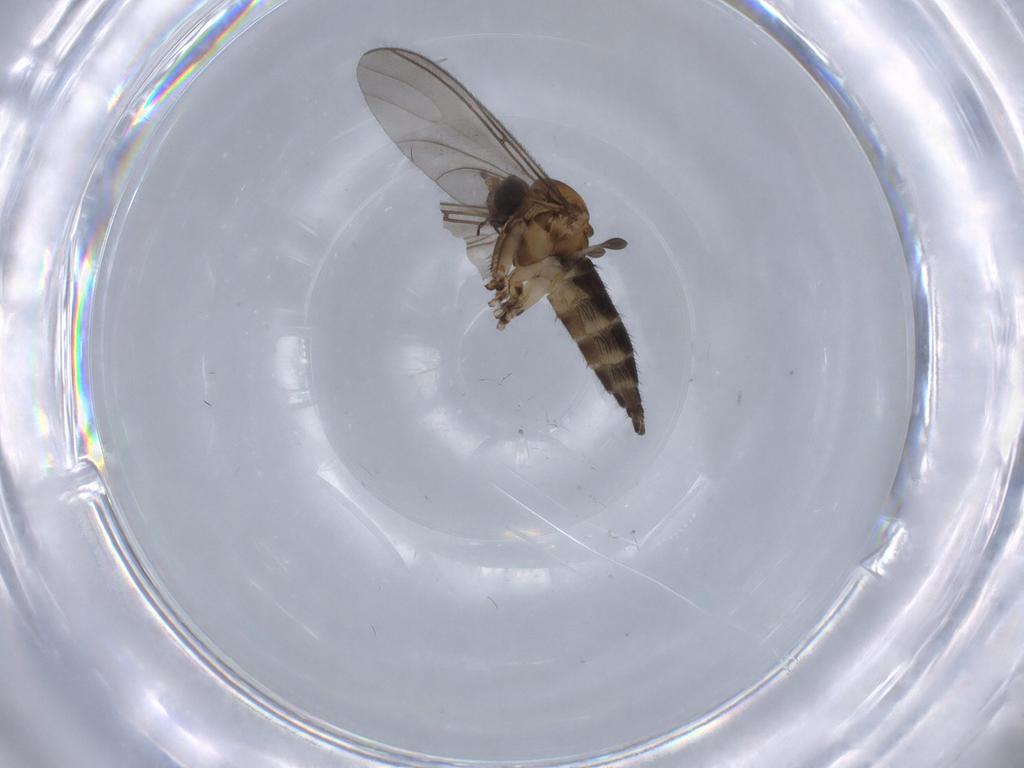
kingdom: Animalia
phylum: Arthropoda
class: Insecta
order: Diptera
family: Sciaridae
